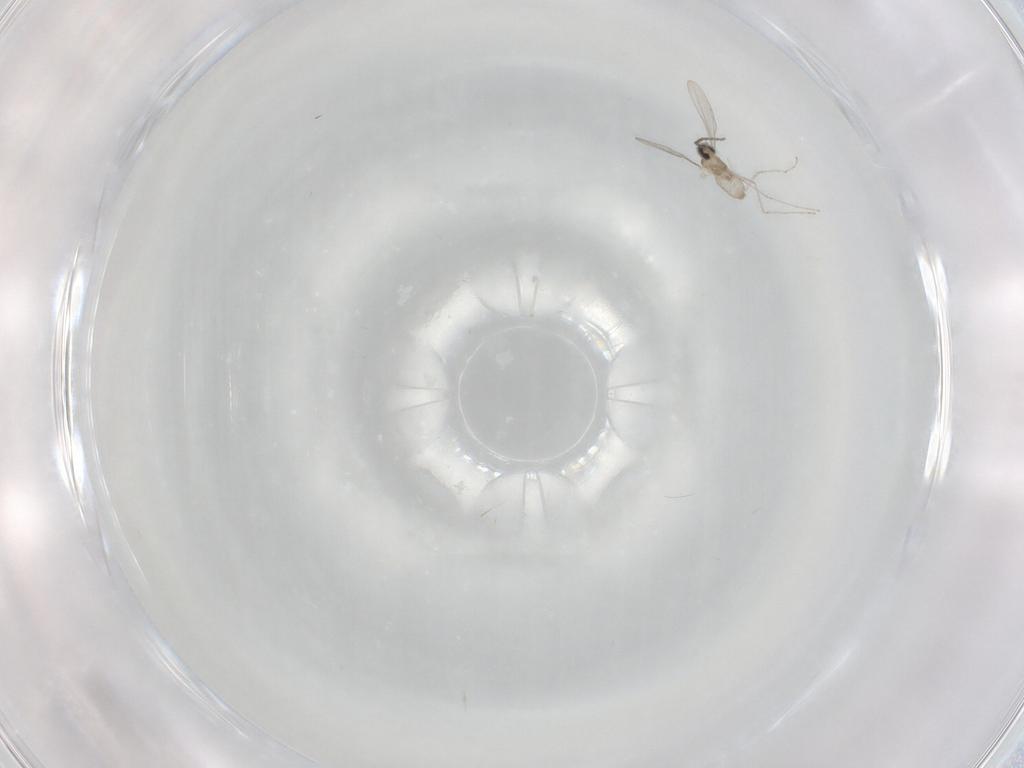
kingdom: Animalia
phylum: Arthropoda
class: Insecta
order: Diptera
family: Cecidomyiidae
